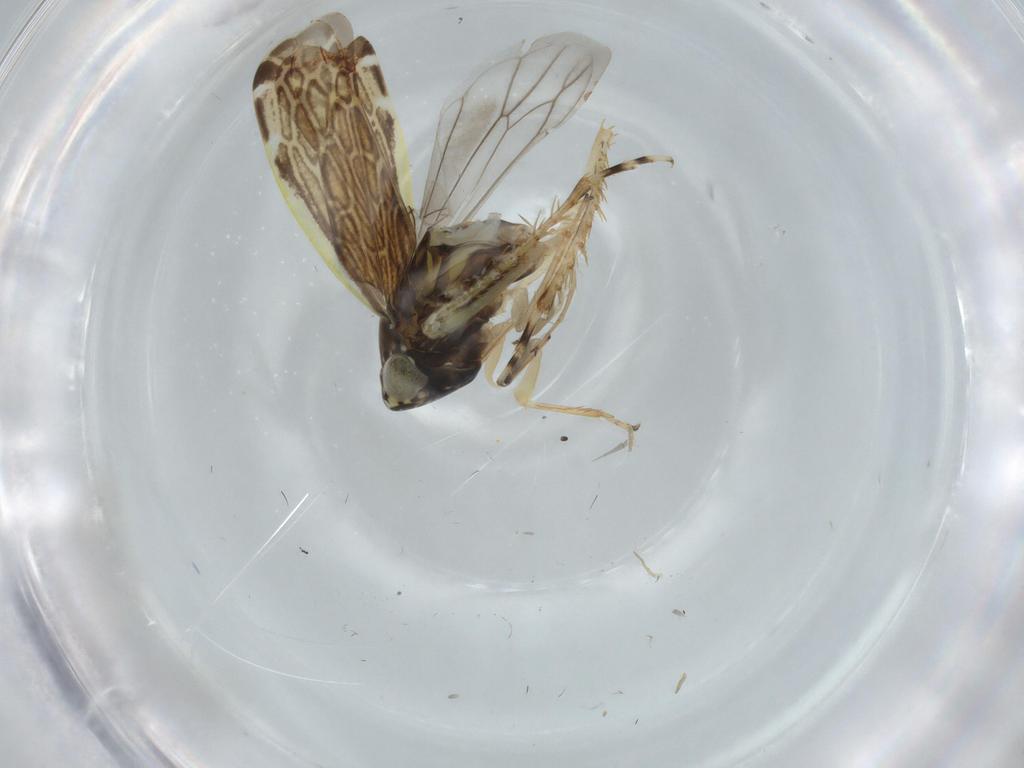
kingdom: Animalia
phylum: Arthropoda
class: Insecta
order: Hemiptera
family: Cicadellidae
